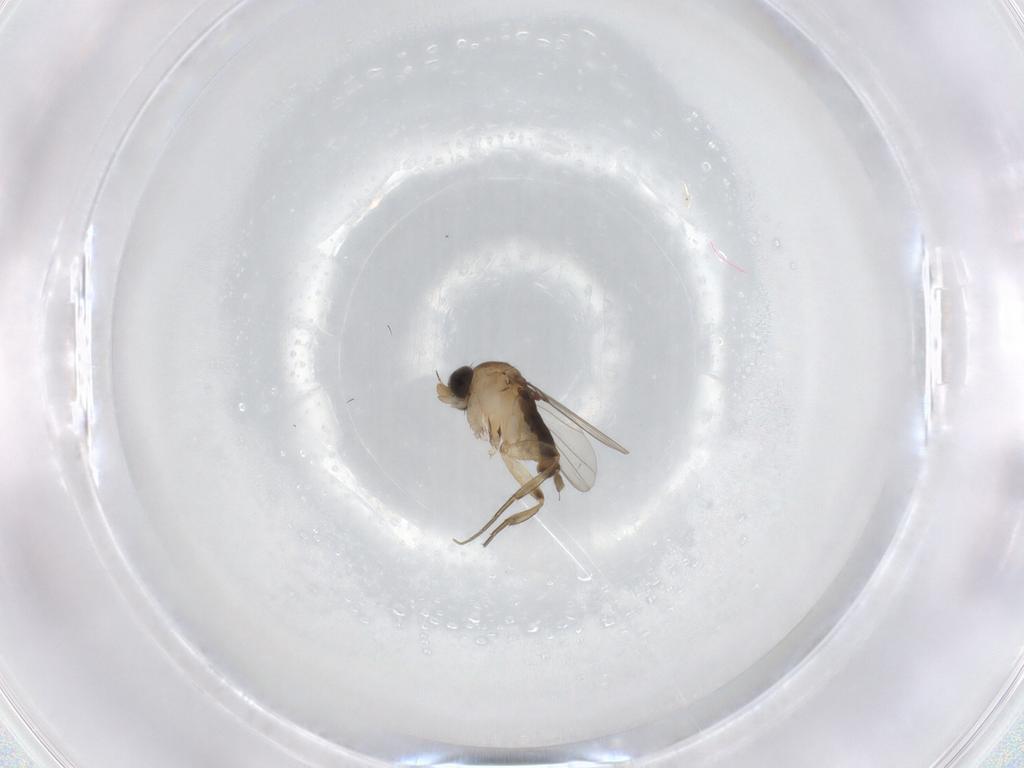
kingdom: Animalia
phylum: Arthropoda
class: Insecta
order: Diptera
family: Phoridae
